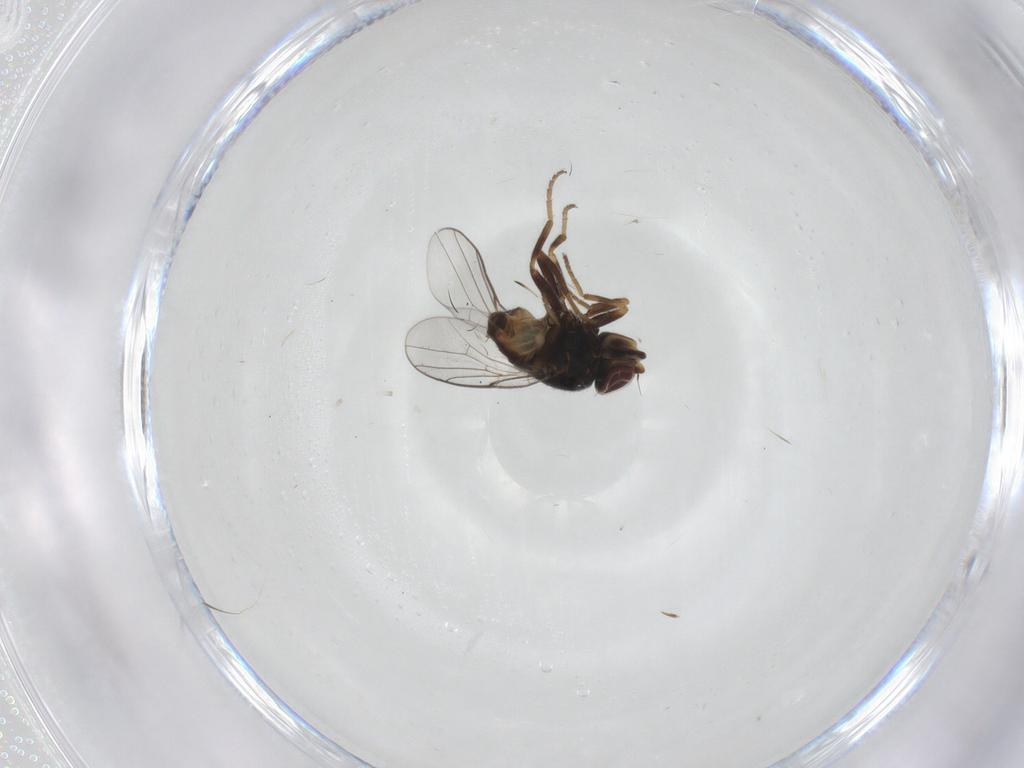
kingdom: Animalia
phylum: Arthropoda
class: Insecta
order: Diptera
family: Chloropidae
